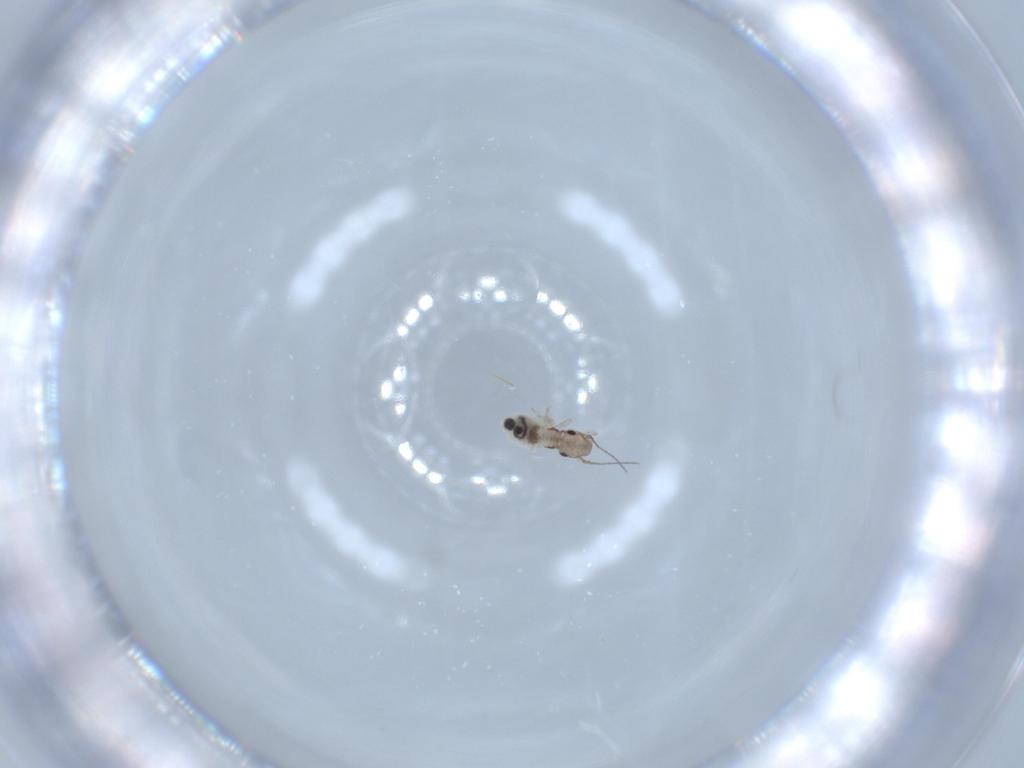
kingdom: Animalia
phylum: Arthropoda
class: Insecta
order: Psocodea
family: Lepidopsocidae
